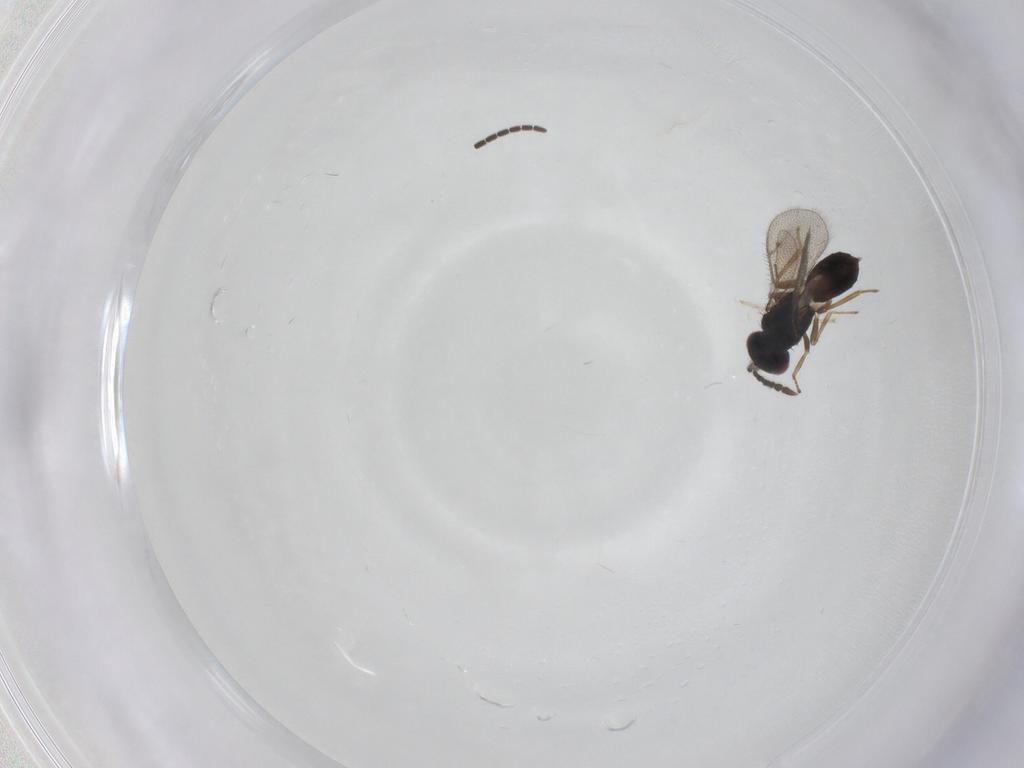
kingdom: Animalia
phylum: Arthropoda
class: Insecta
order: Hymenoptera
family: Eulophidae
